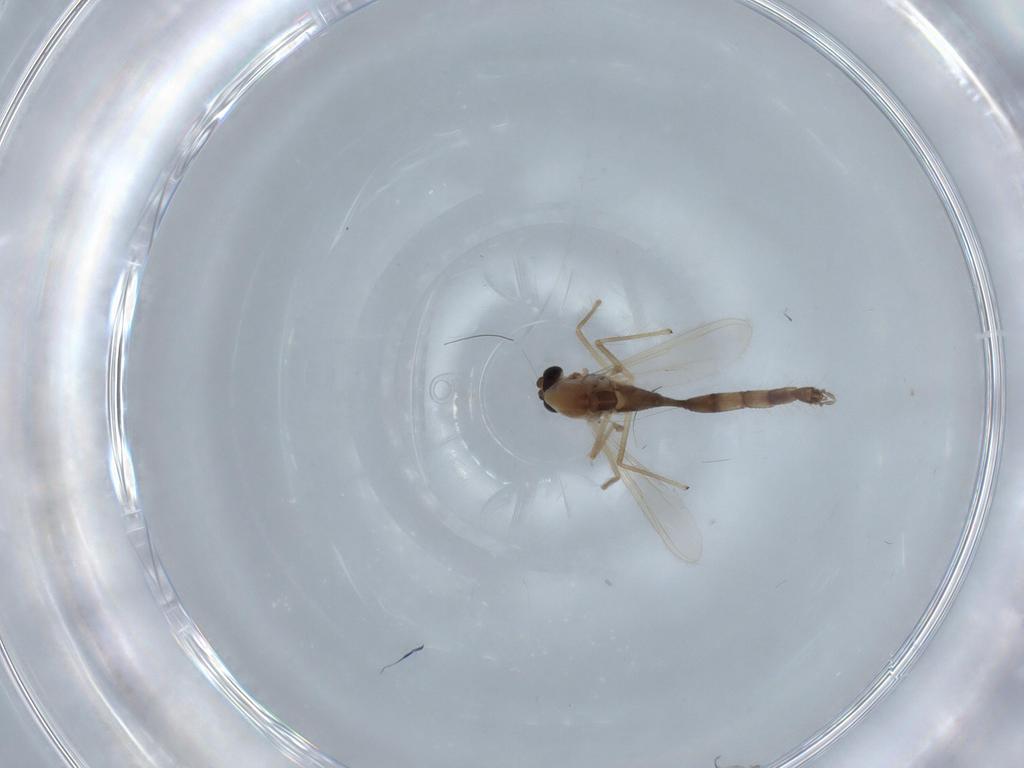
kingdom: Animalia
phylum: Arthropoda
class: Insecta
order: Diptera
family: Chironomidae
